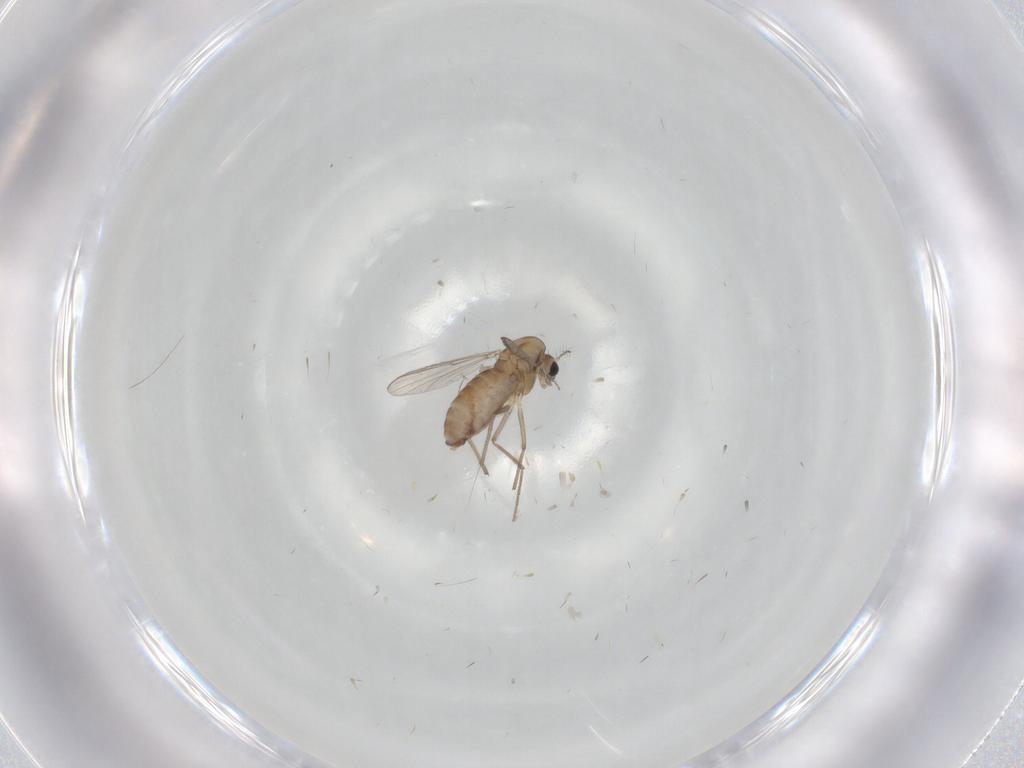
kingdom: Animalia
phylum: Arthropoda
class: Insecta
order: Diptera
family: Chironomidae
